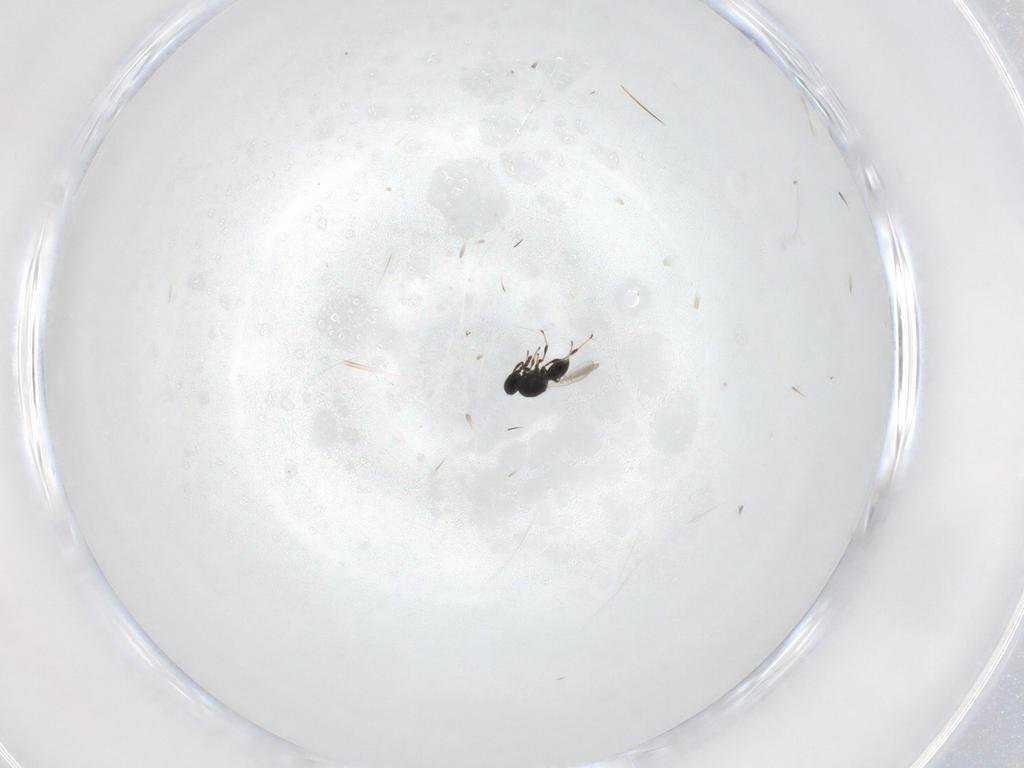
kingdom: Animalia
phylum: Arthropoda
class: Insecta
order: Hymenoptera
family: Platygastridae
